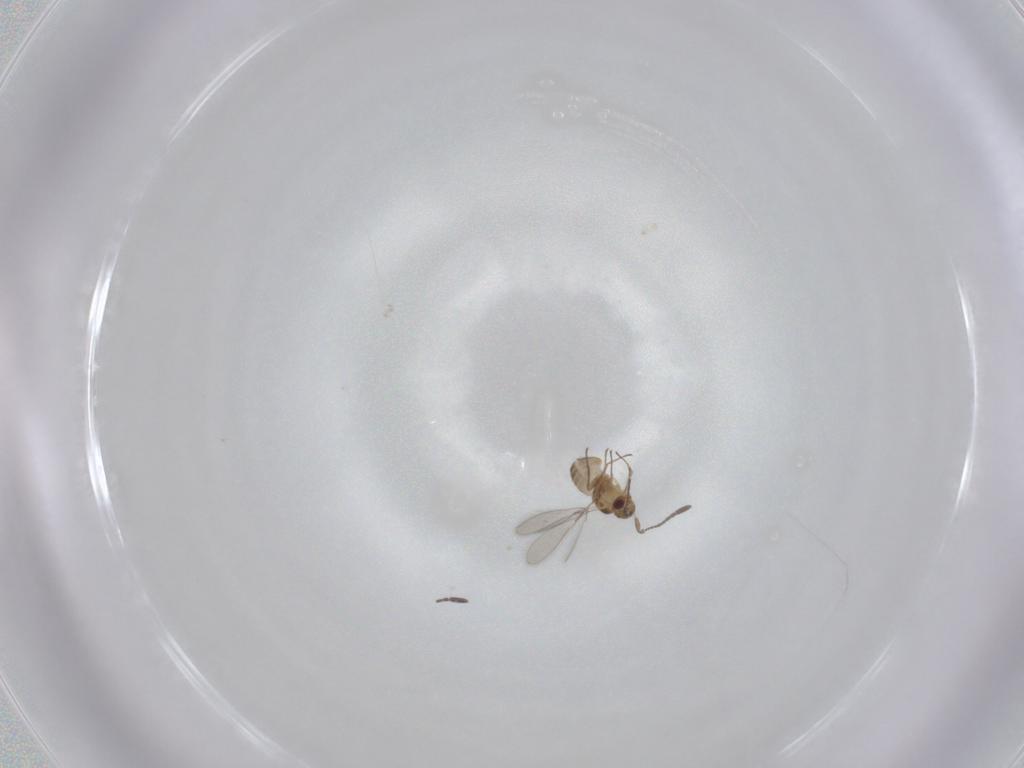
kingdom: Animalia
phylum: Arthropoda
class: Insecta
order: Hymenoptera
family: Mymaridae
